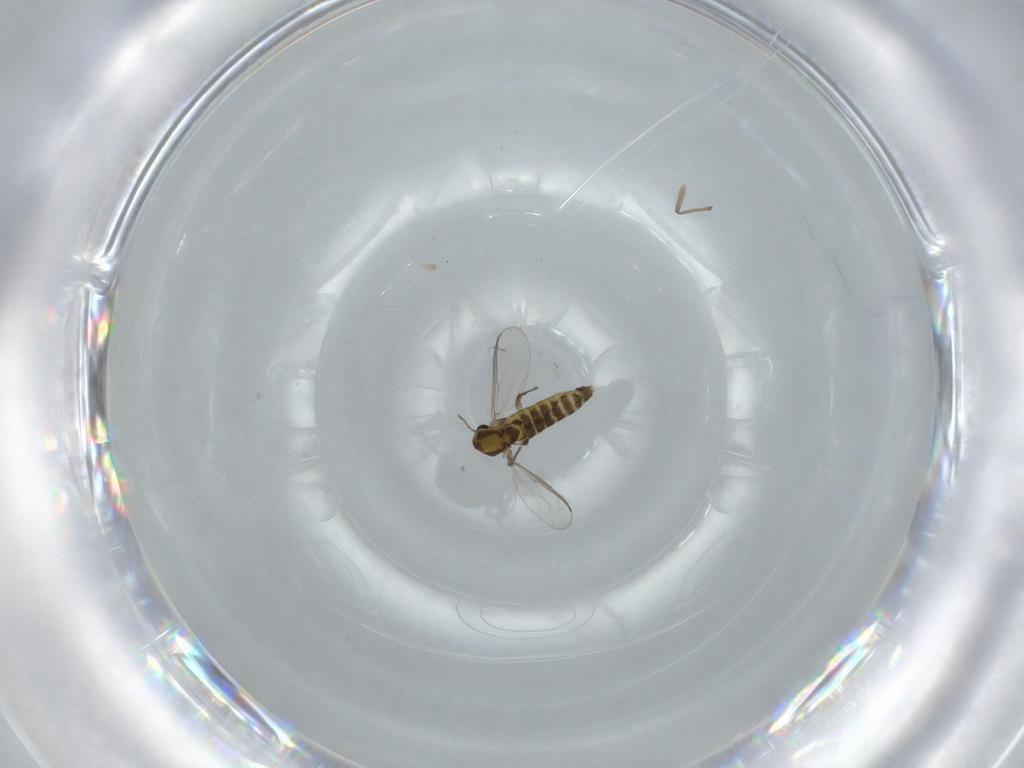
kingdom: Animalia
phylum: Arthropoda
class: Insecta
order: Diptera
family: Chironomidae
